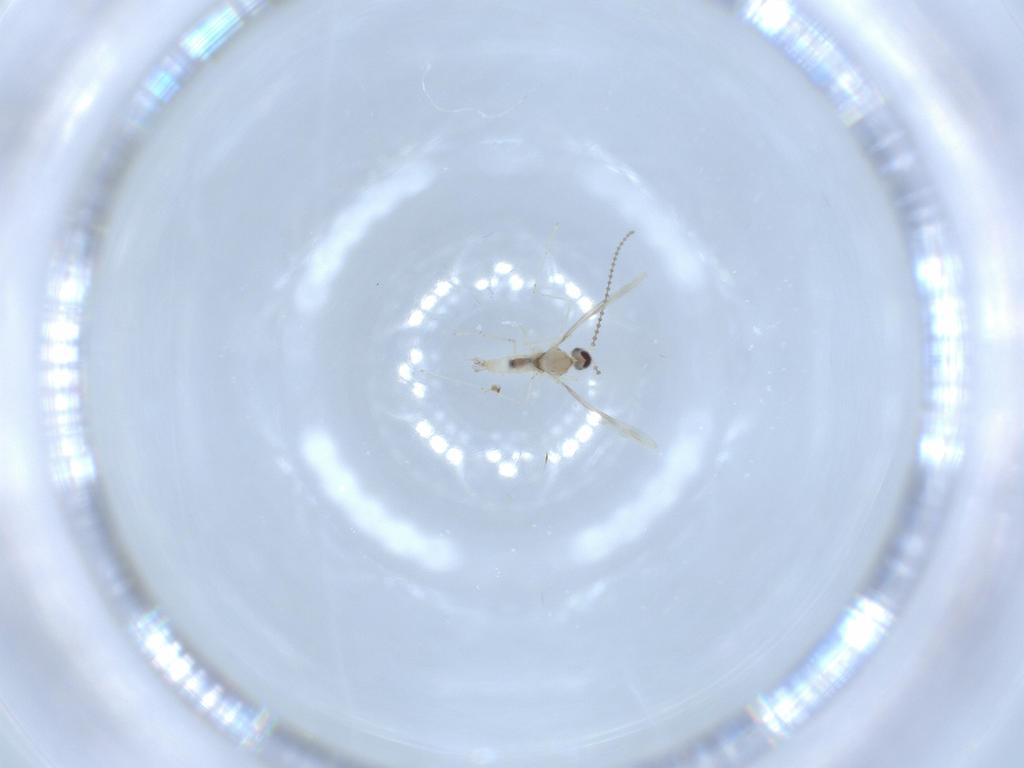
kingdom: Animalia
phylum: Arthropoda
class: Insecta
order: Diptera
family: Cecidomyiidae
